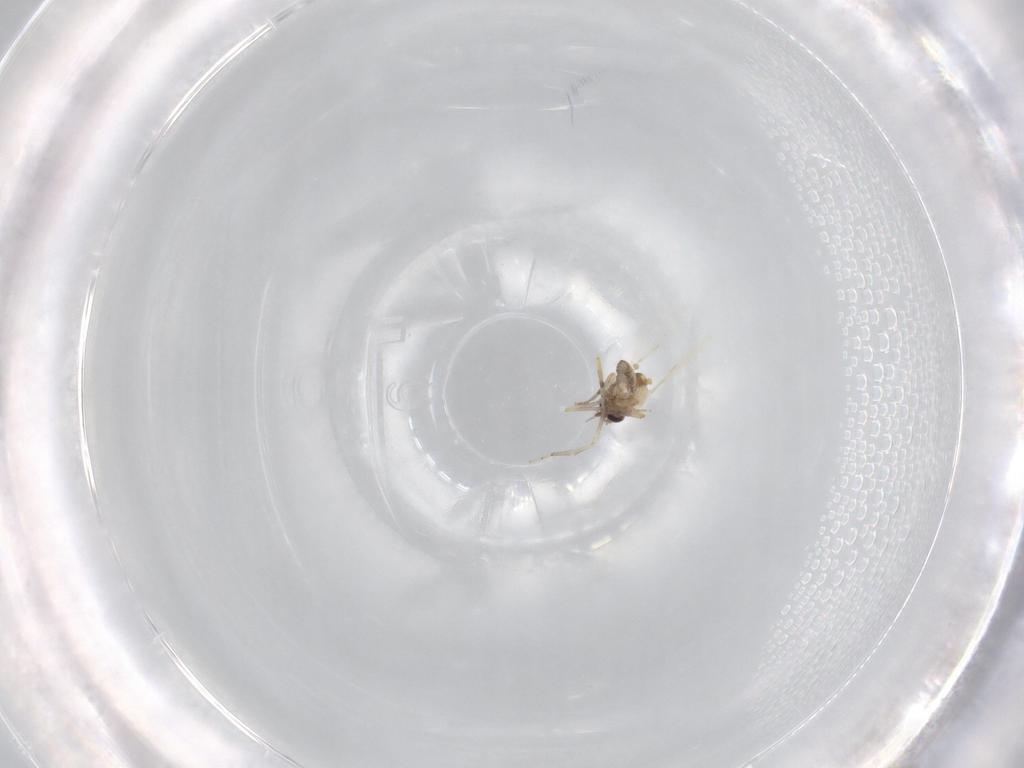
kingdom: Animalia
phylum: Arthropoda
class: Insecta
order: Diptera
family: Ceratopogonidae
